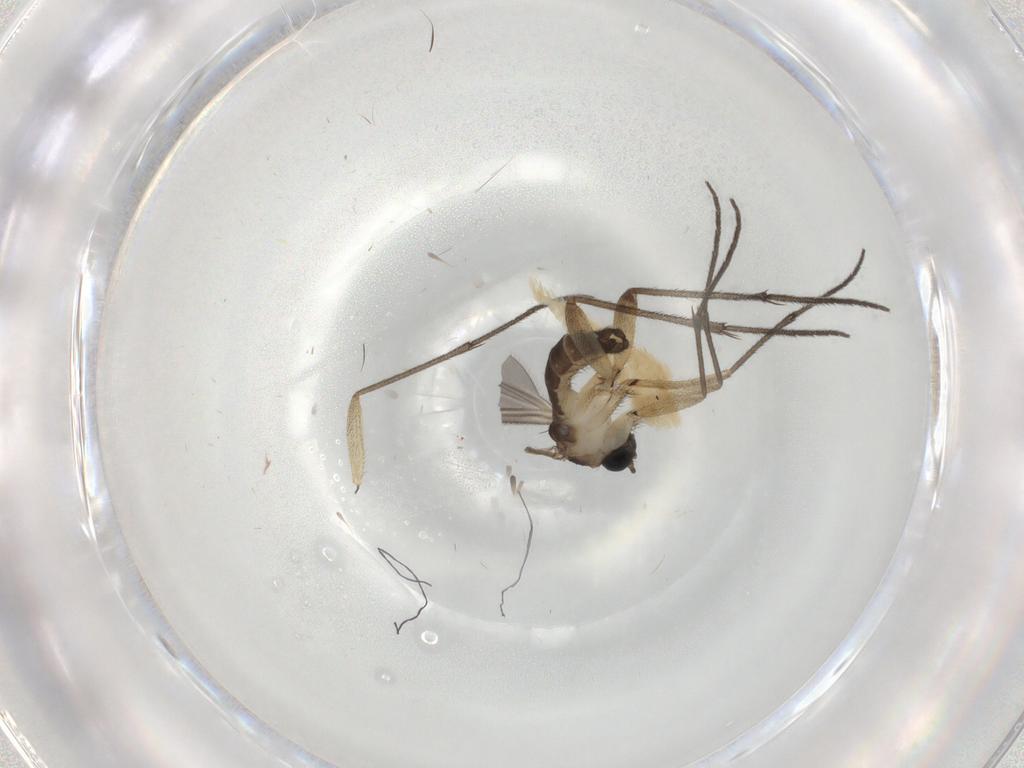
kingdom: Animalia
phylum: Arthropoda
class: Insecta
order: Diptera
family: Sciaridae
